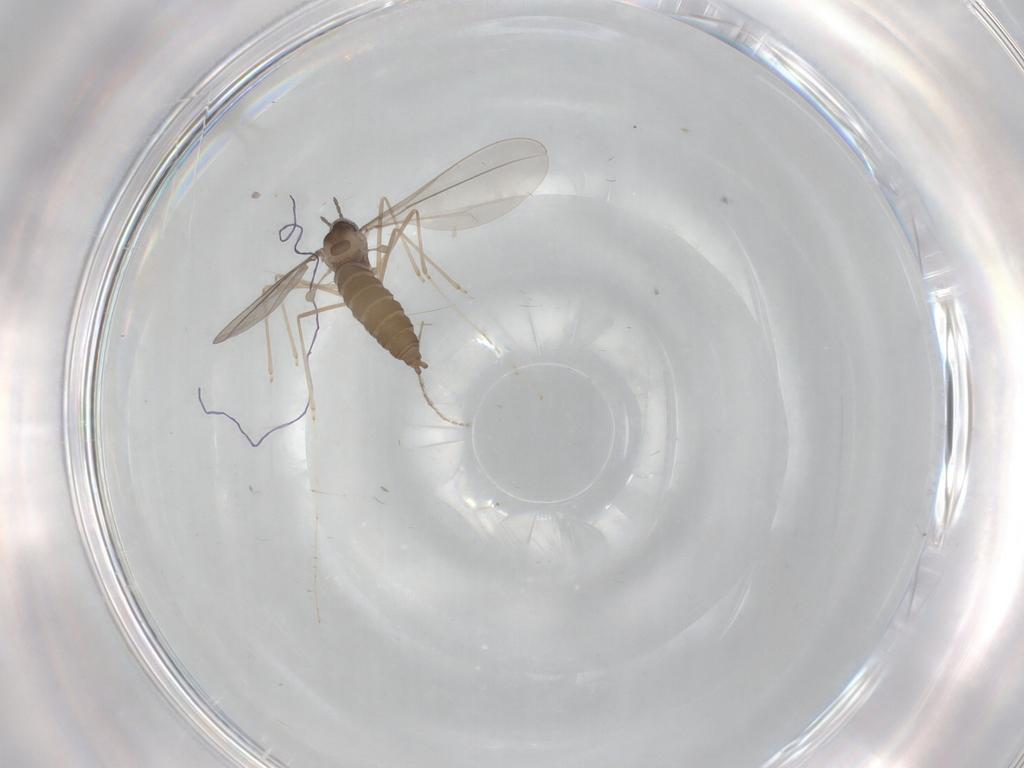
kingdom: Animalia
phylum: Arthropoda
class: Insecta
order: Diptera
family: Cecidomyiidae
